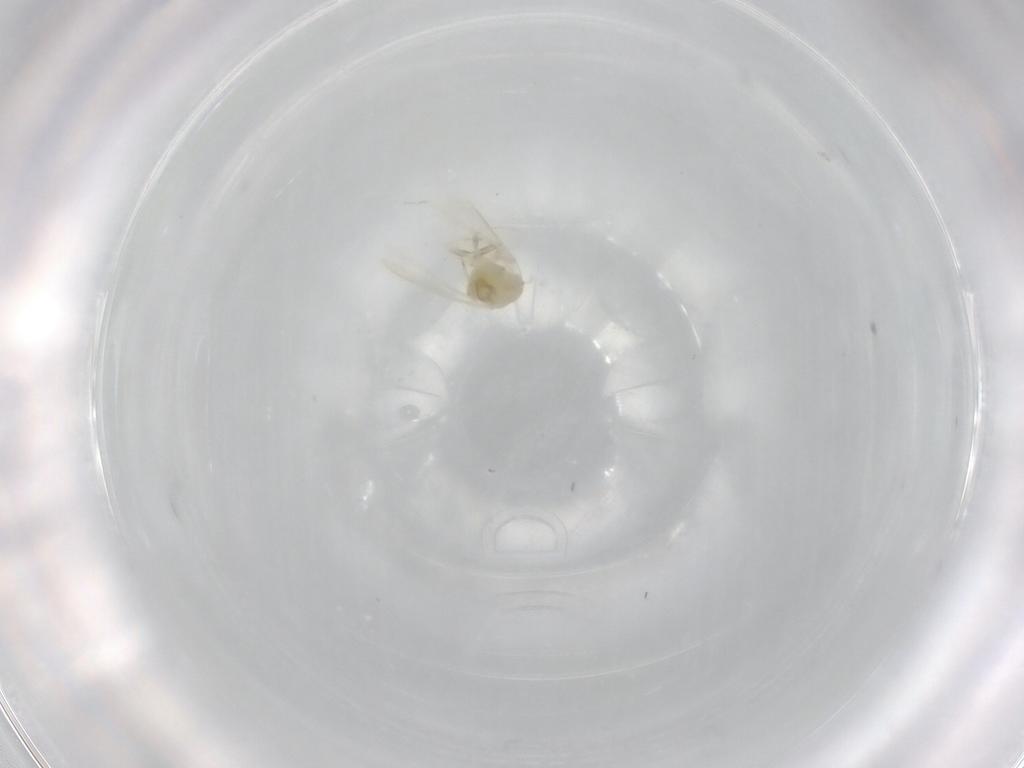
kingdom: Animalia
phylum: Arthropoda
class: Insecta
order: Hemiptera
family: Aleyrodidae
